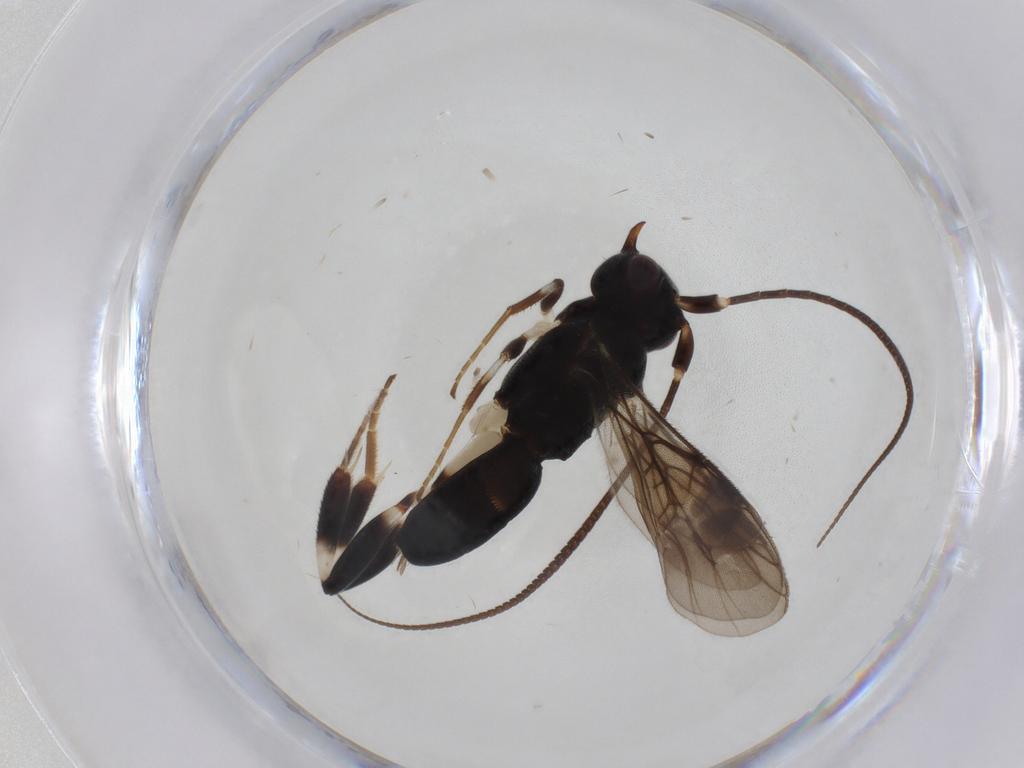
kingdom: Animalia
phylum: Arthropoda
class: Insecta
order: Hymenoptera
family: Braconidae
